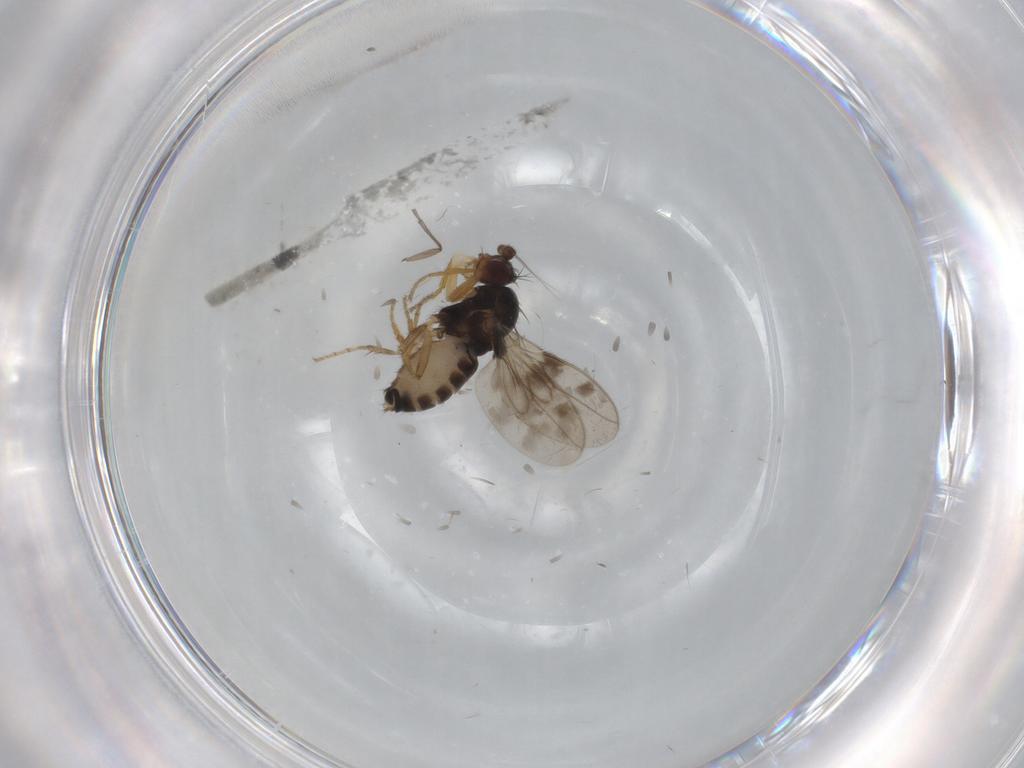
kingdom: Animalia
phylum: Arthropoda
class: Insecta
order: Diptera
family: Sphaeroceridae
